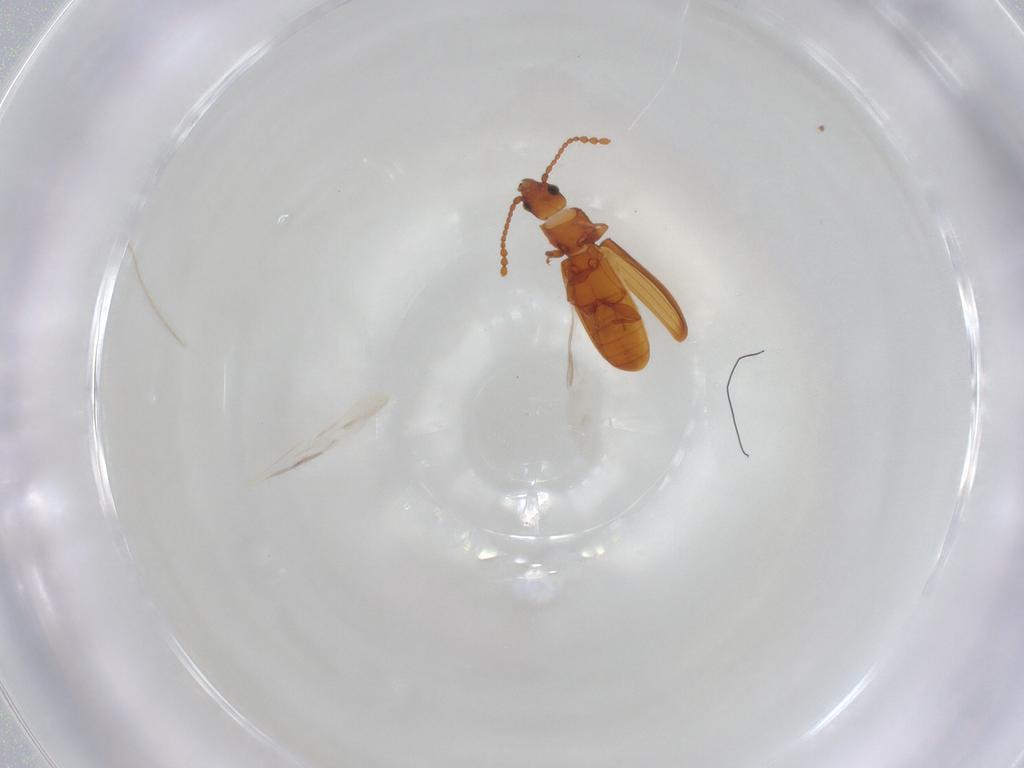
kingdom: Animalia
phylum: Arthropoda
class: Insecta
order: Coleoptera
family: Laemophloeidae
